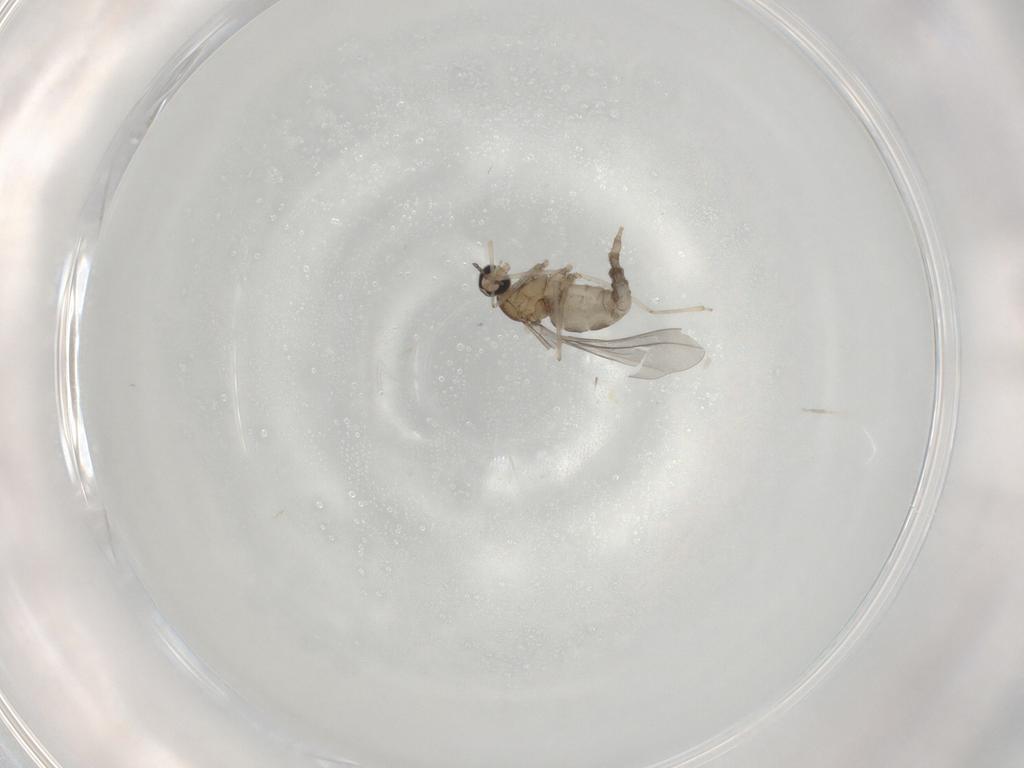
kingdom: Animalia
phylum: Arthropoda
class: Insecta
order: Diptera
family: Cecidomyiidae
